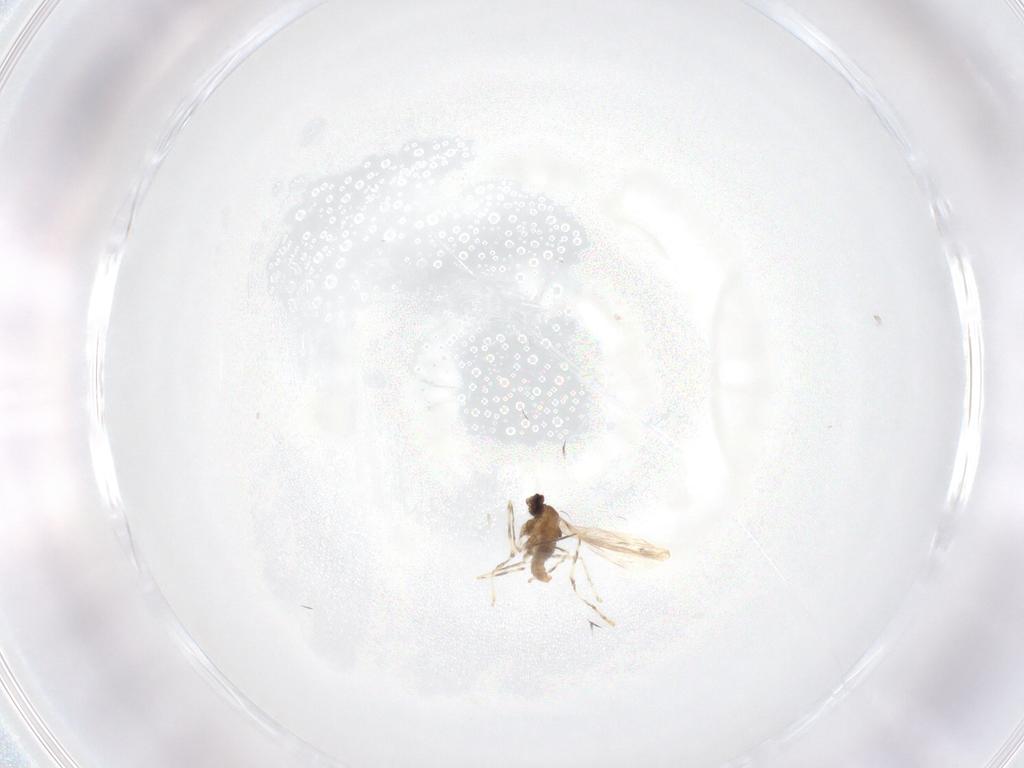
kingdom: Animalia
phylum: Arthropoda
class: Insecta
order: Diptera
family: Cecidomyiidae
